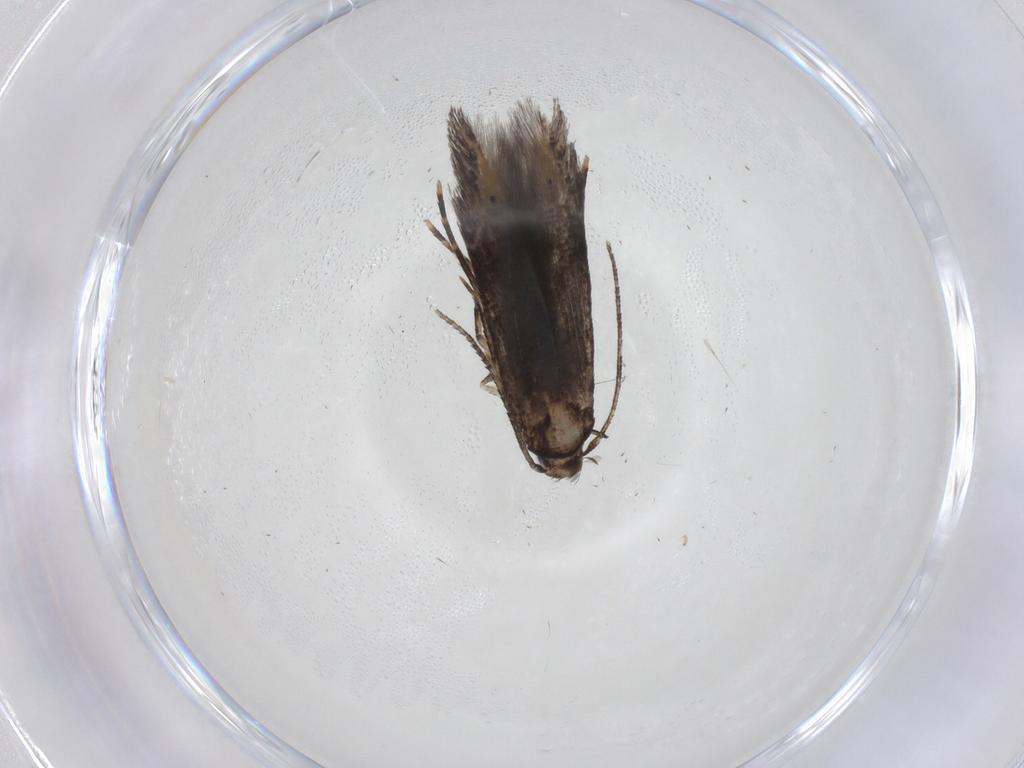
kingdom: Animalia
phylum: Arthropoda
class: Insecta
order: Lepidoptera
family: Cosmopterigidae
